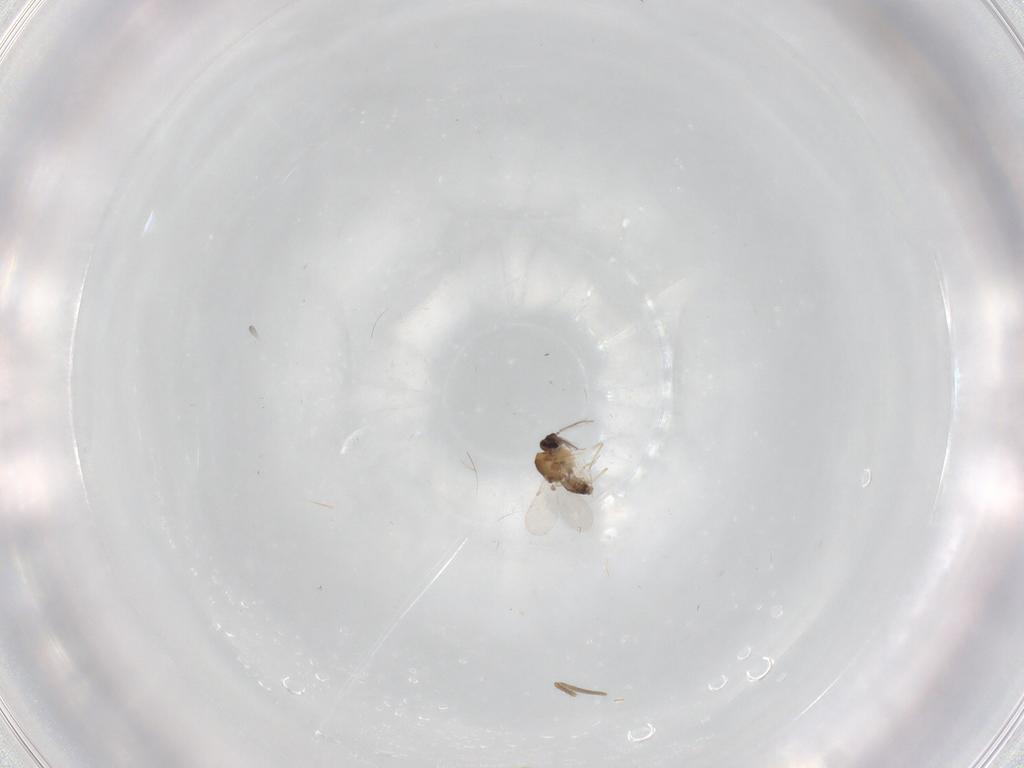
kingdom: Animalia
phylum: Arthropoda
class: Insecta
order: Diptera
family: Ceratopogonidae
